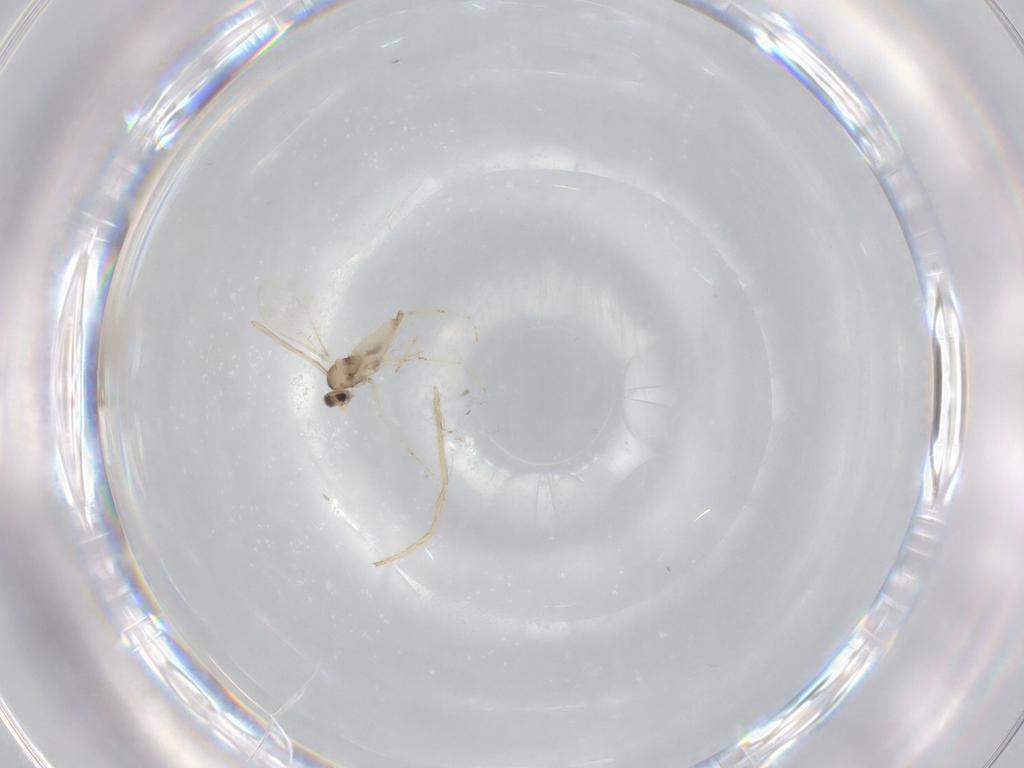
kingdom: Animalia
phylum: Arthropoda
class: Insecta
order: Diptera
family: Cecidomyiidae
